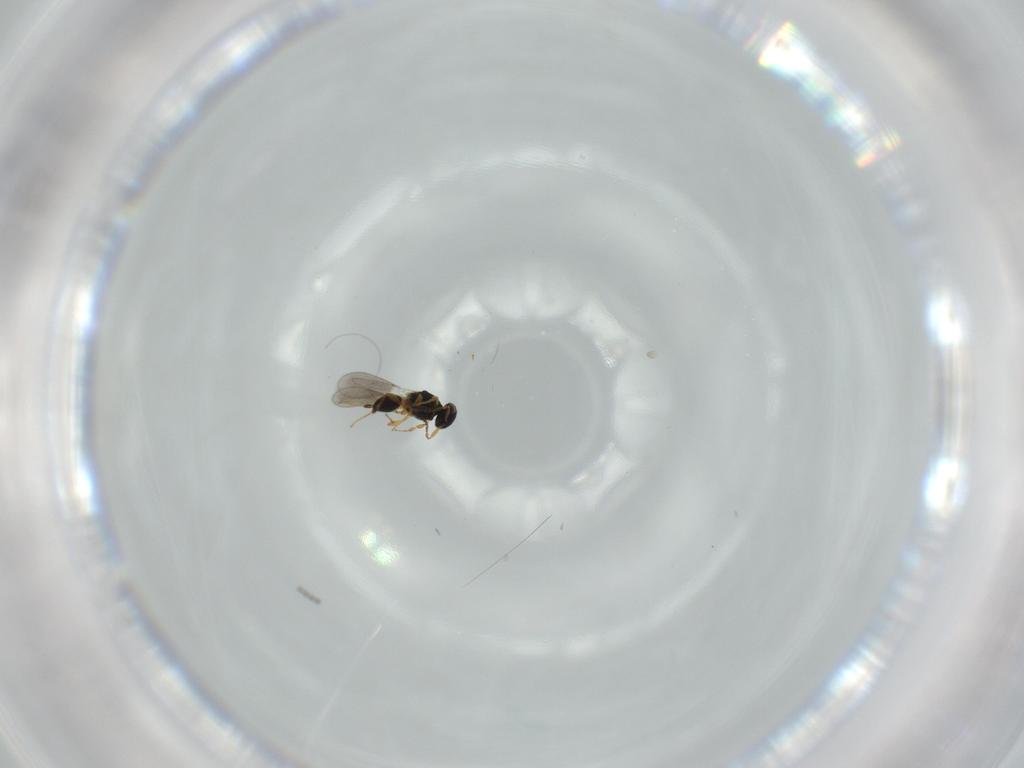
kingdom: Animalia
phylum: Arthropoda
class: Insecta
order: Hymenoptera
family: Platygastridae
